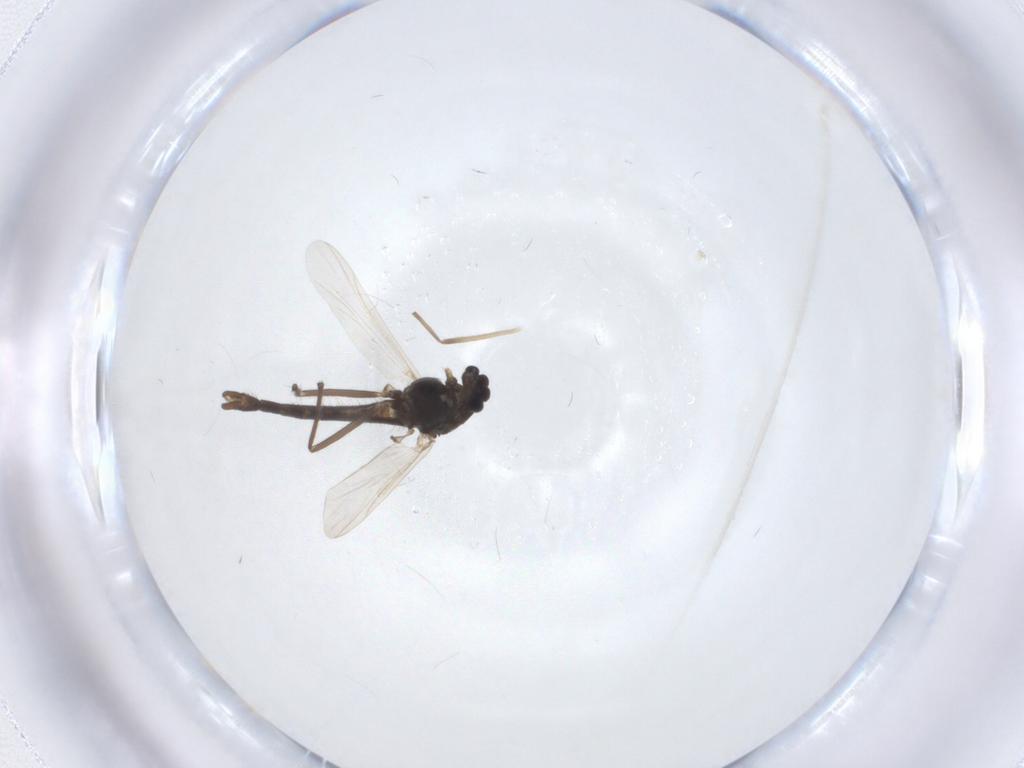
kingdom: Animalia
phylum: Arthropoda
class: Insecta
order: Diptera
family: Chironomidae
